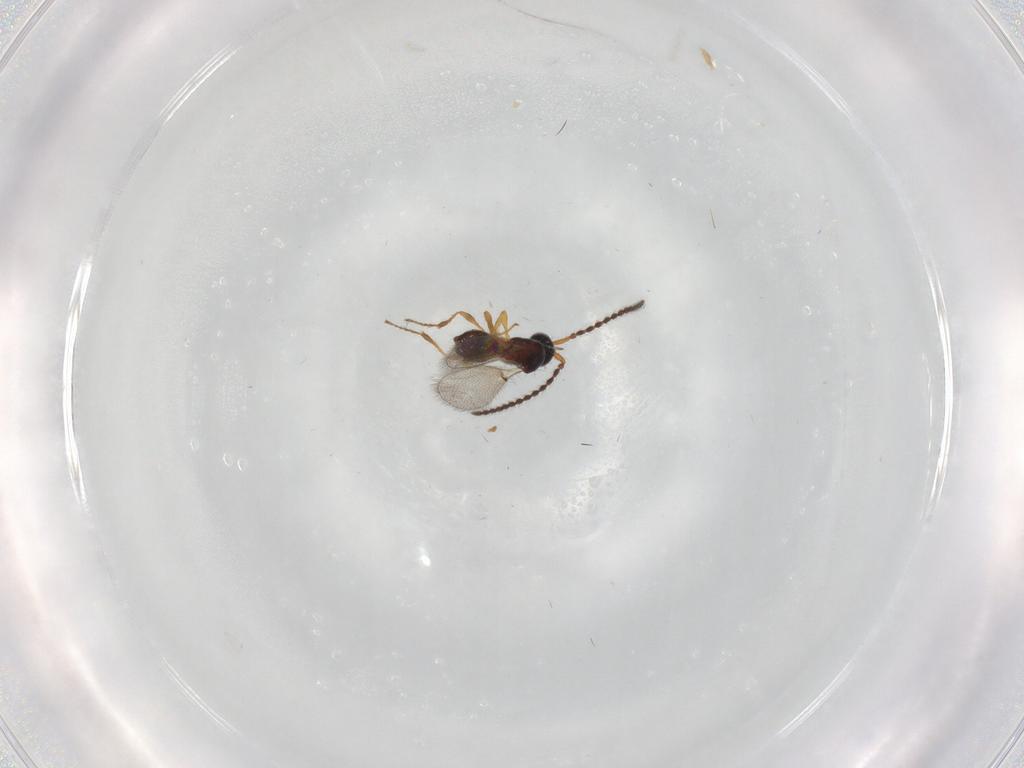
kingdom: Animalia
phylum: Arthropoda
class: Insecta
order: Hymenoptera
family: Diapriidae
